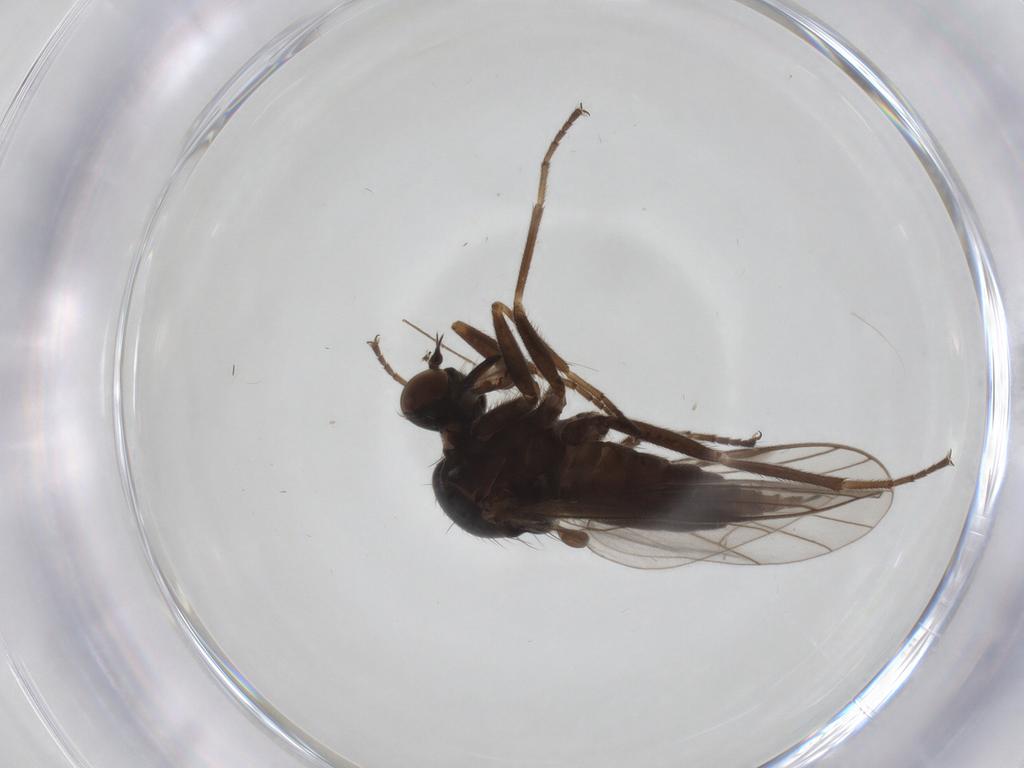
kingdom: Animalia
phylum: Arthropoda
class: Insecta
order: Diptera
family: Empididae
